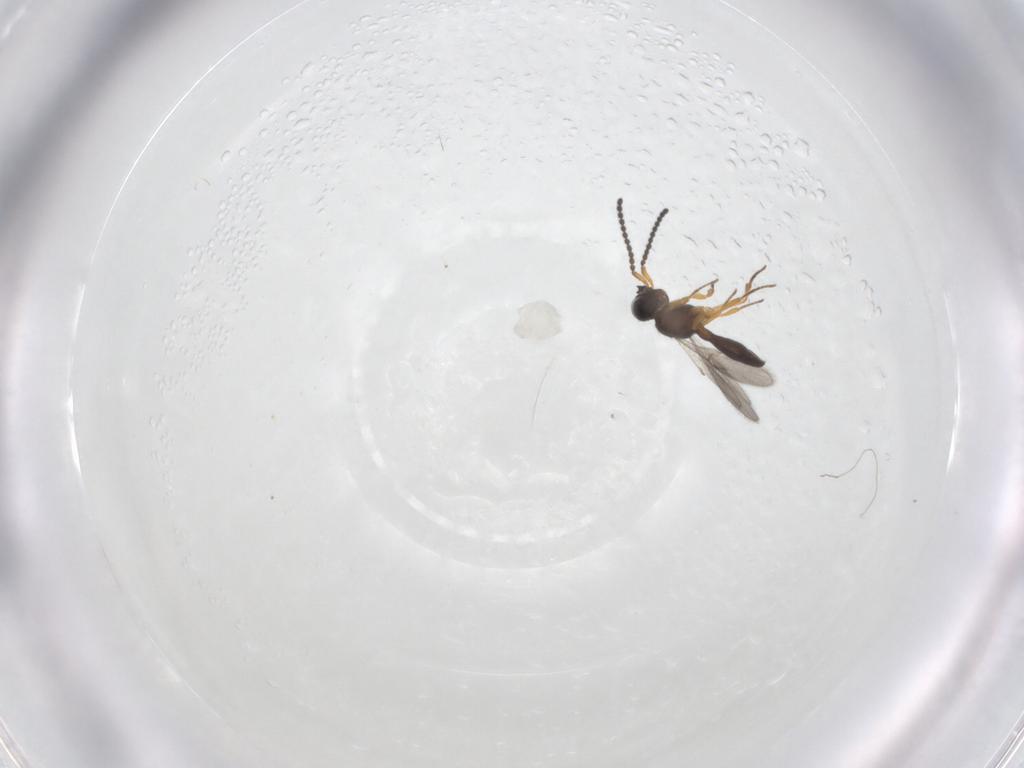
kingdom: Animalia
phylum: Arthropoda
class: Insecta
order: Hymenoptera
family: Scelionidae
